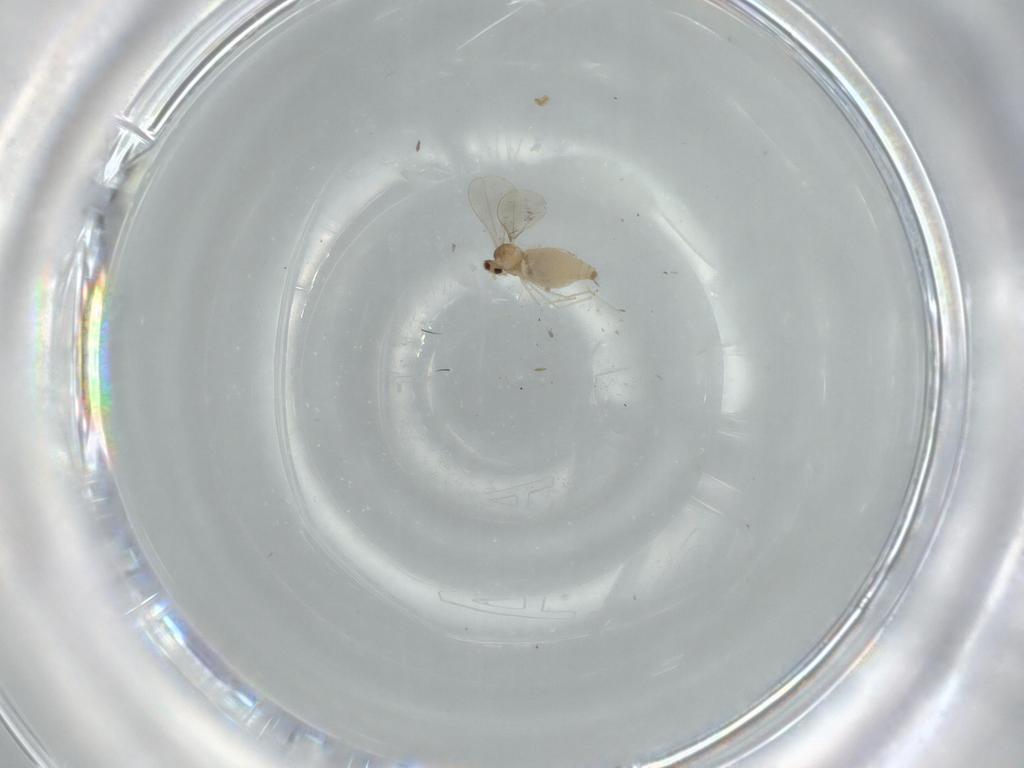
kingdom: Animalia
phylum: Arthropoda
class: Insecta
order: Diptera
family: Cecidomyiidae
